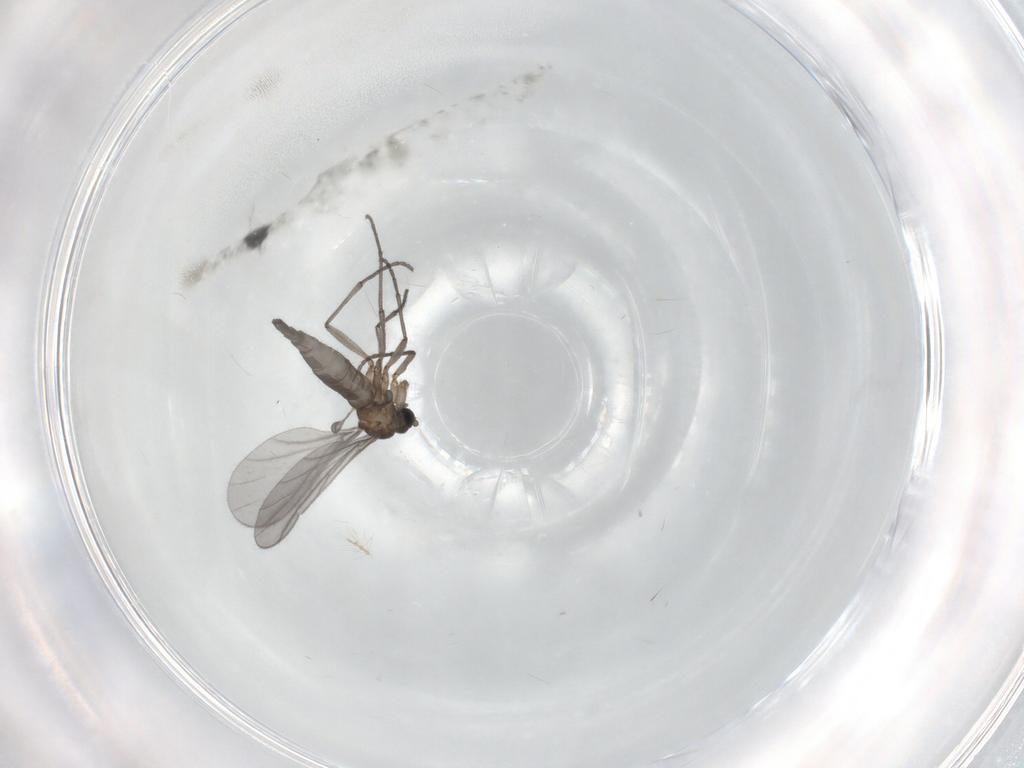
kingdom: Animalia
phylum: Arthropoda
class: Insecta
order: Diptera
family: Sciaridae
